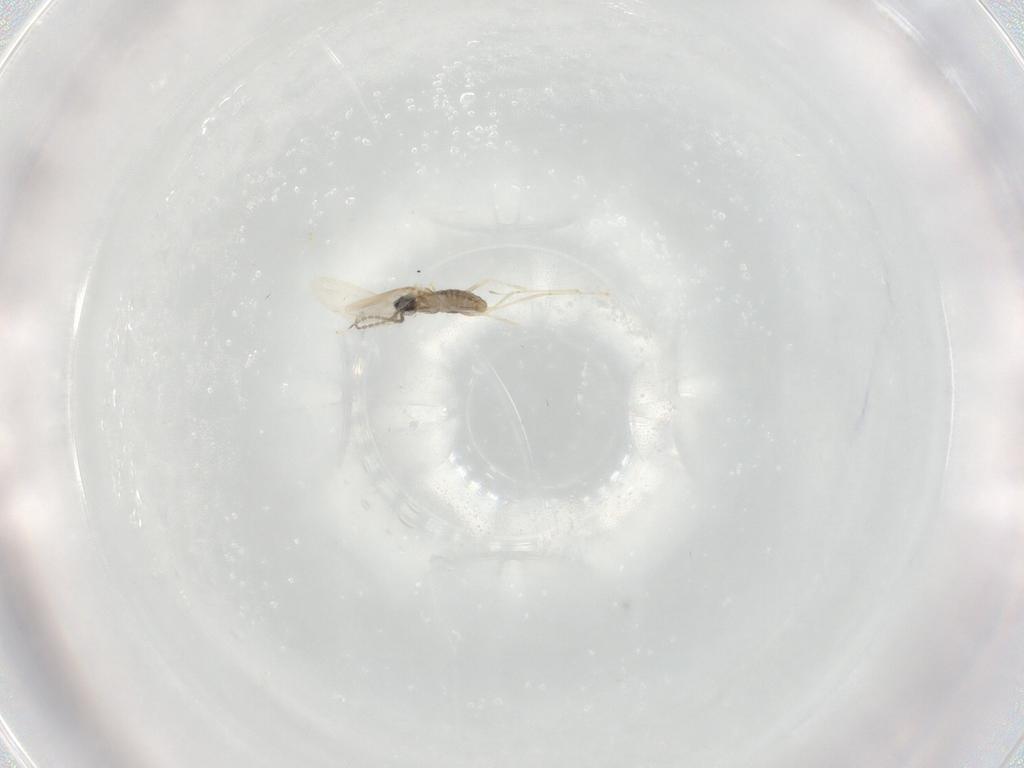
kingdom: Animalia
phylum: Arthropoda
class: Insecta
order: Diptera
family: Cecidomyiidae
